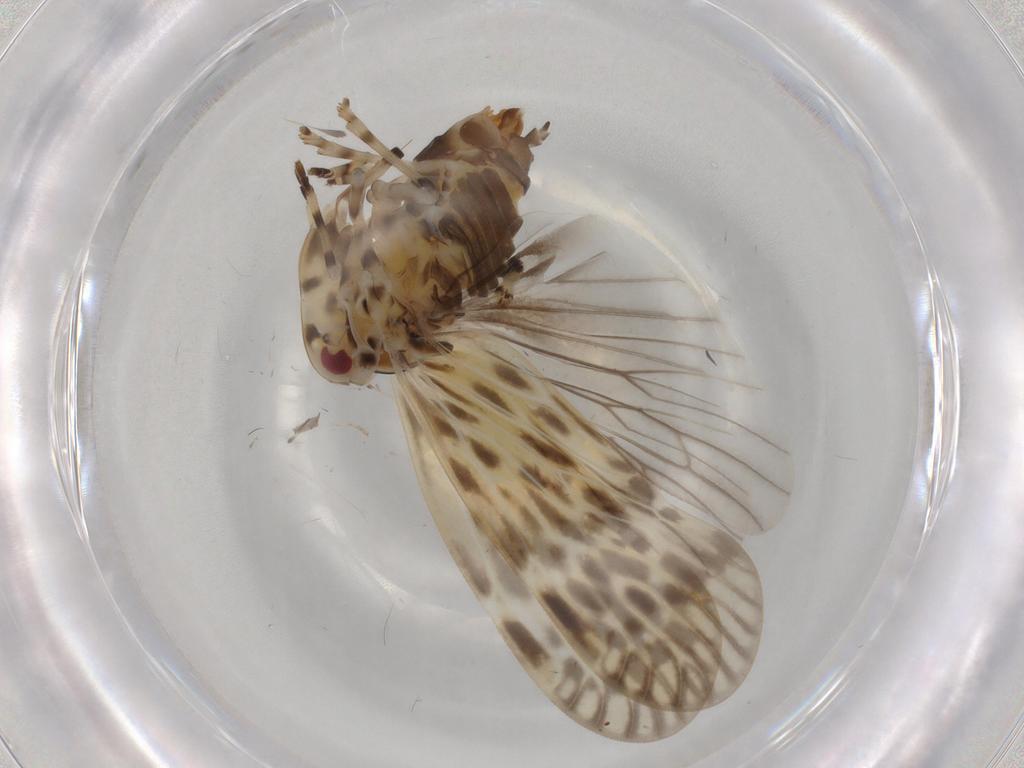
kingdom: Animalia
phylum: Arthropoda
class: Insecta
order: Hemiptera
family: Derbidae
